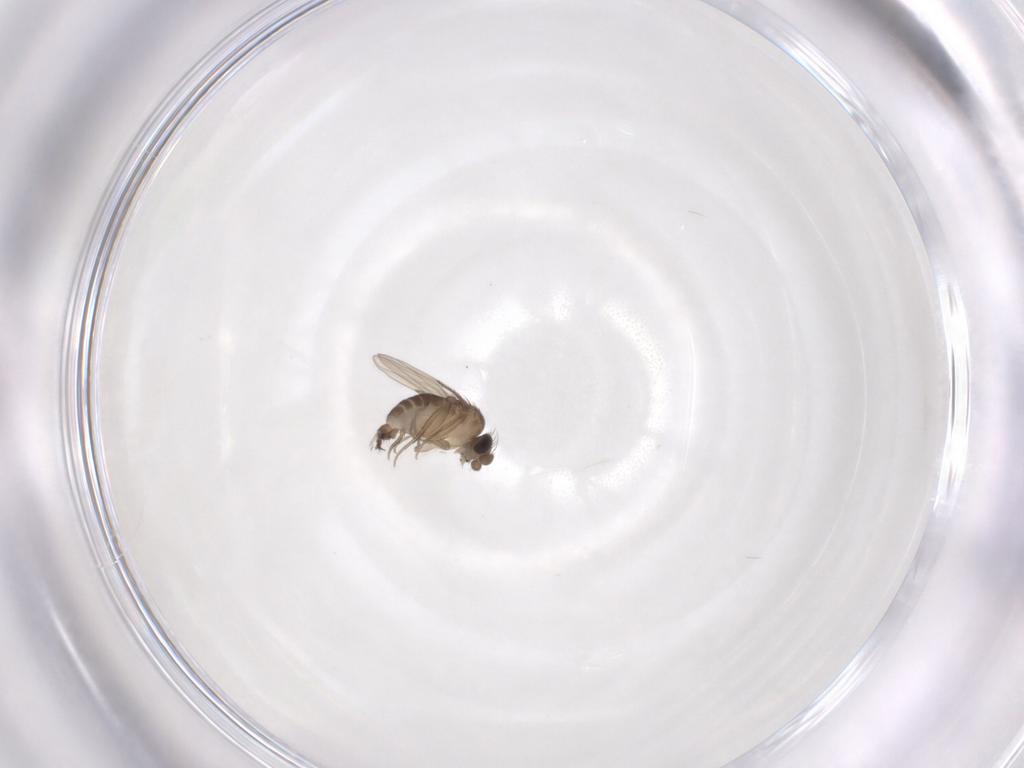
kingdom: Animalia
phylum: Arthropoda
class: Insecta
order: Diptera
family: Phoridae
